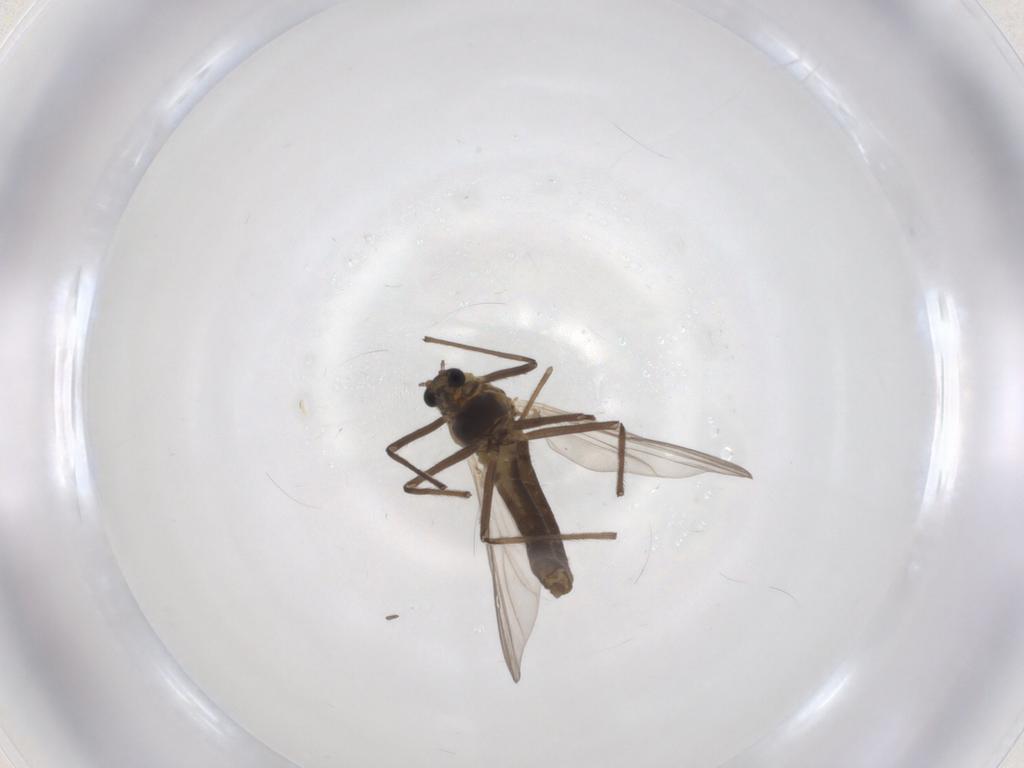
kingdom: Animalia
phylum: Arthropoda
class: Insecta
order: Diptera
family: Chironomidae
